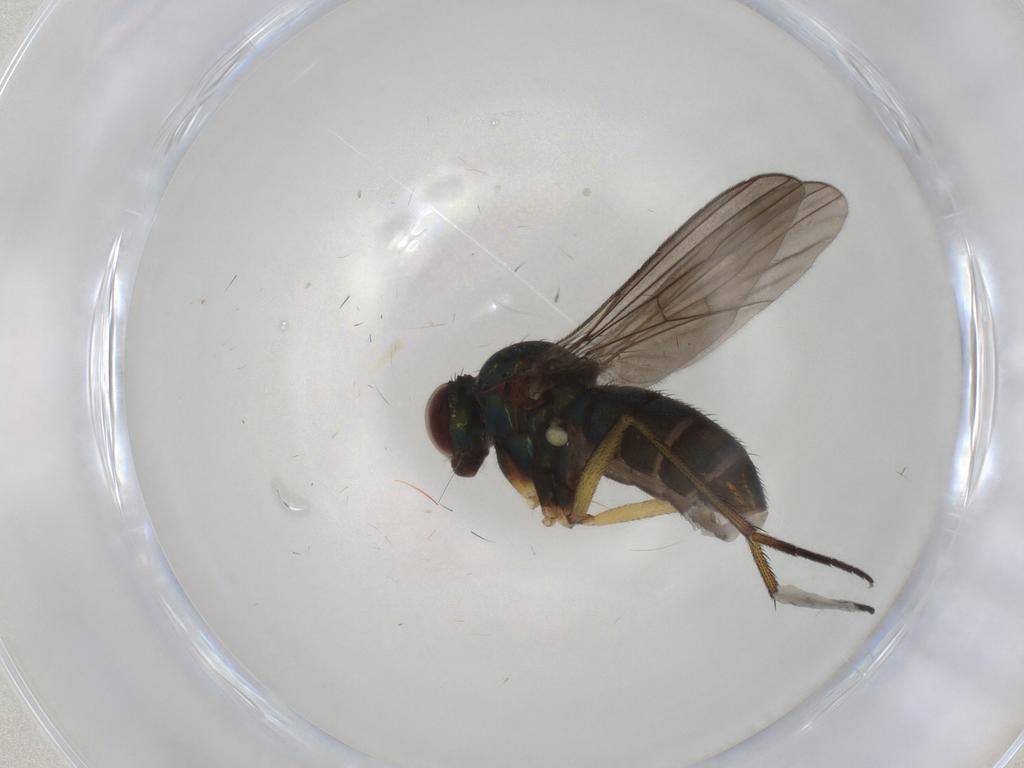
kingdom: Animalia
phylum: Arthropoda
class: Insecta
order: Diptera
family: Dolichopodidae
